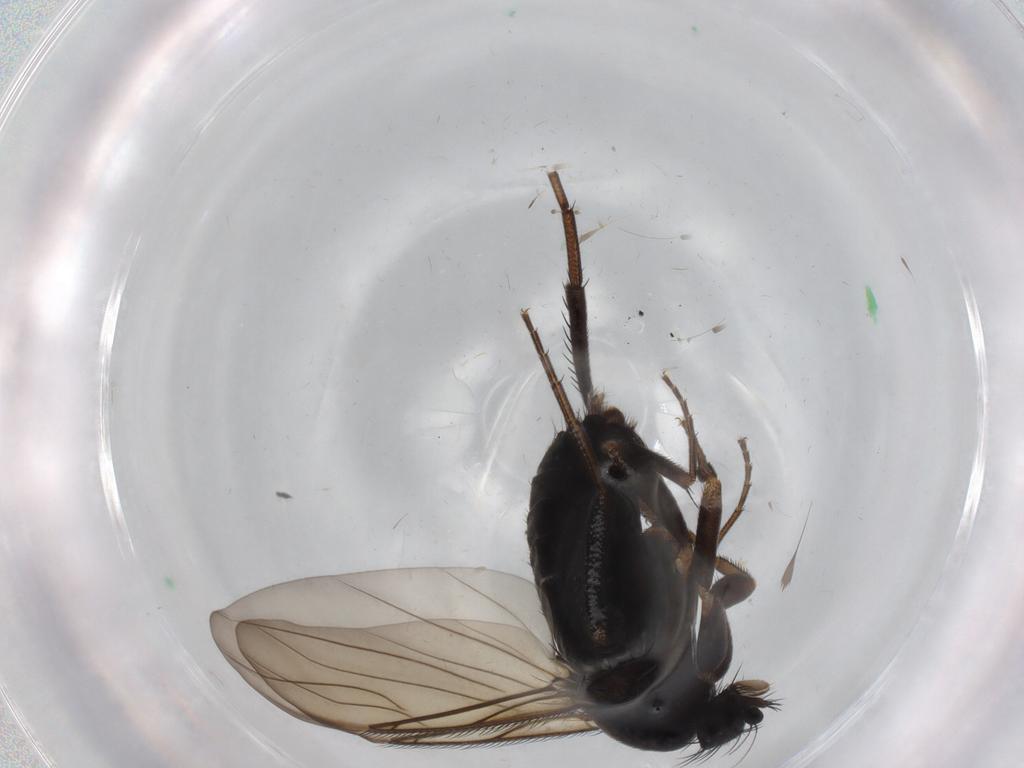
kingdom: Animalia
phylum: Arthropoda
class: Insecta
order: Diptera
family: Phoridae
